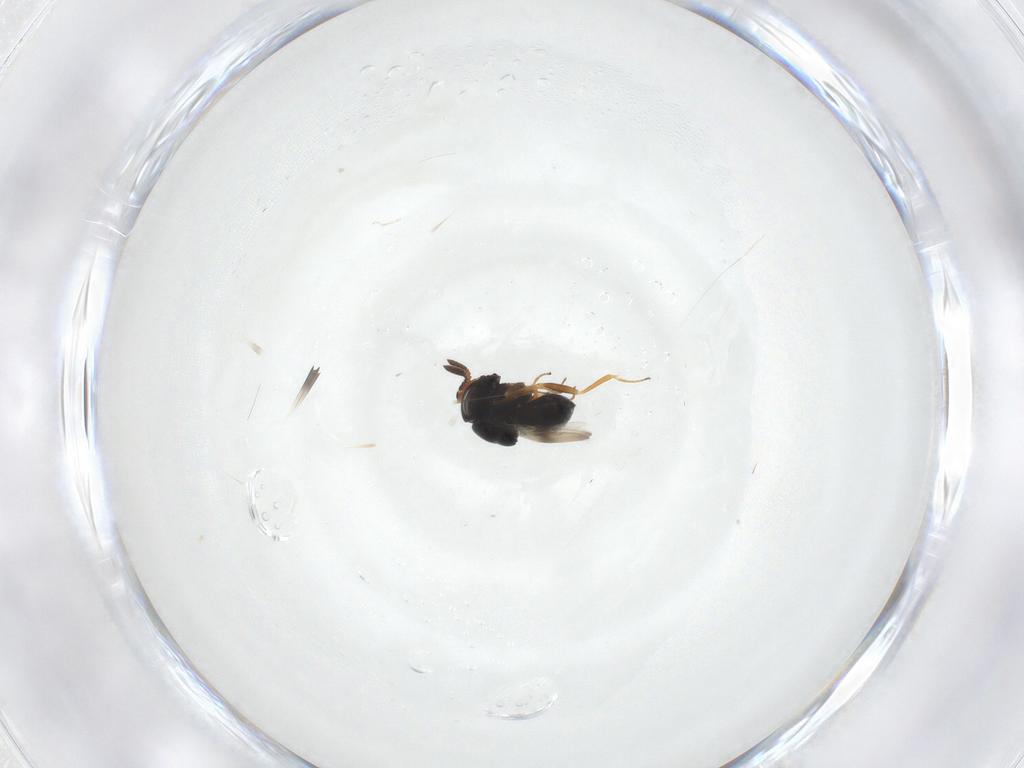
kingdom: Animalia
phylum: Arthropoda
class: Insecta
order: Hymenoptera
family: Scelionidae
